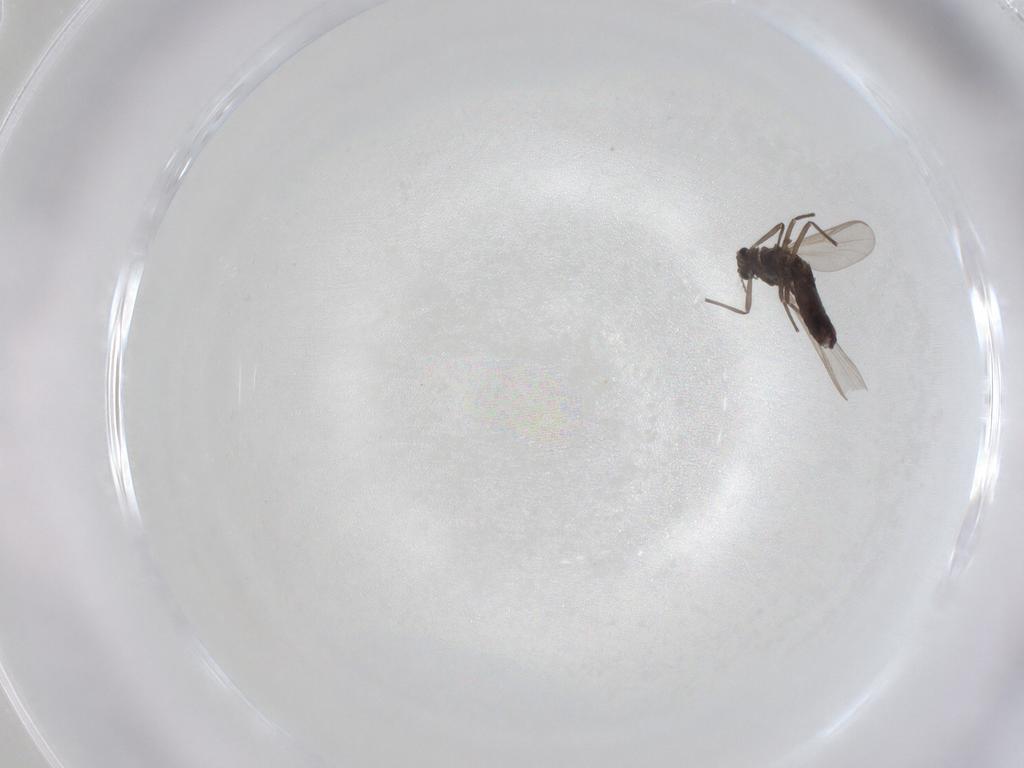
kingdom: Animalia
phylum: Arthropoda
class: Insecta
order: Diptera
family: Chironomidae
